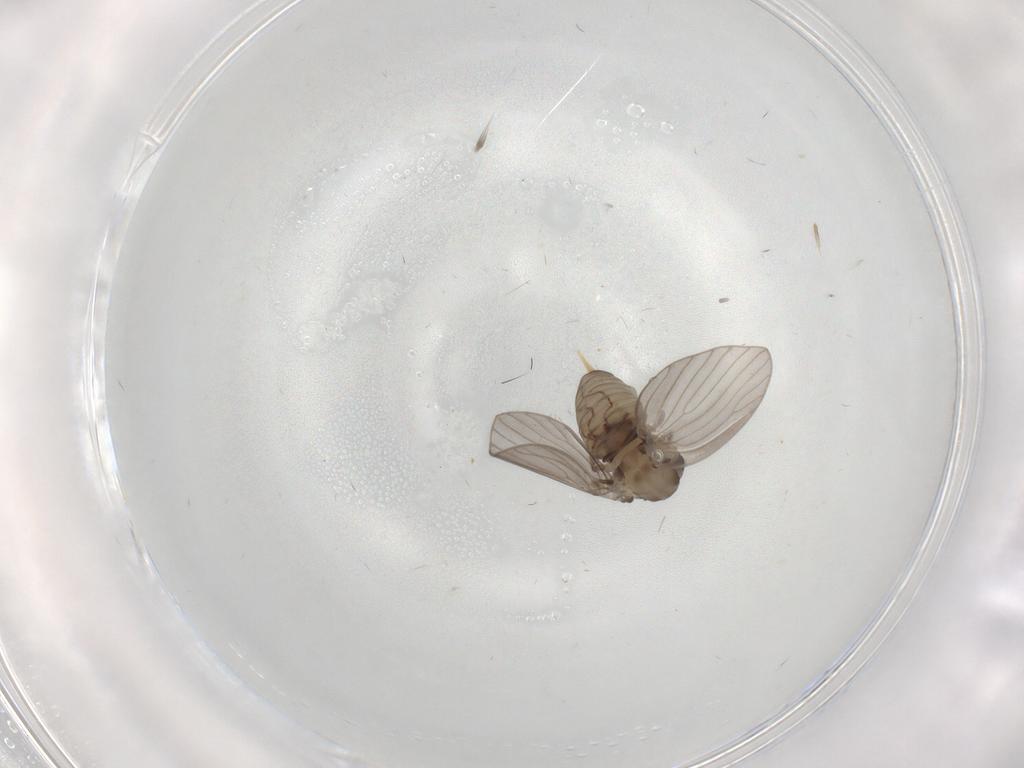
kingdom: Animalia
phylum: Arthropoda
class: Insecta
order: Diptera
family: Psychodidae
